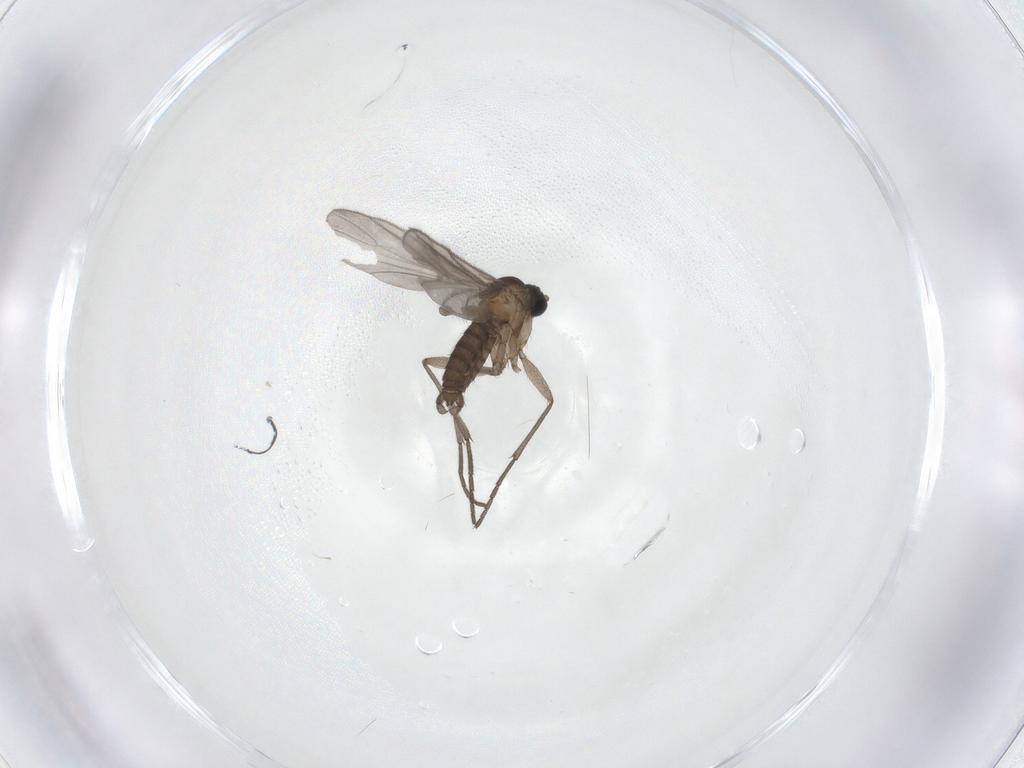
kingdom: Animalia
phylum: Arthropoda
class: Insecta
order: Diptera
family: Sciaridae
